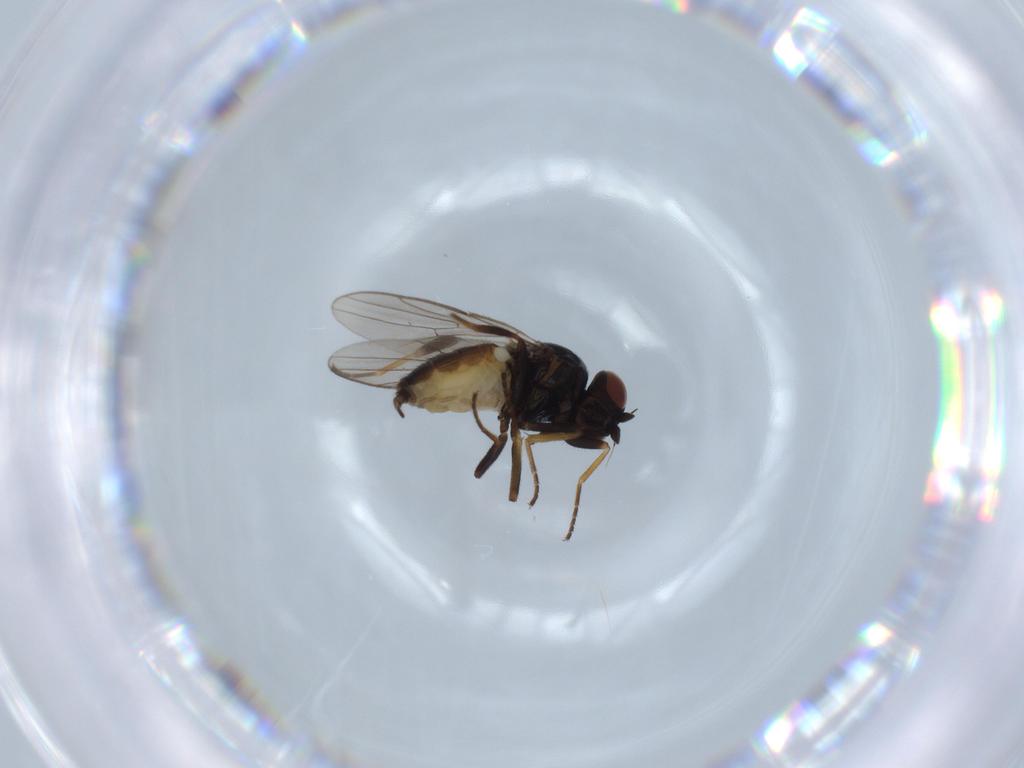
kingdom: Animalia
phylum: Arthropoda
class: Insecta
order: Diptera
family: Chloropidae
